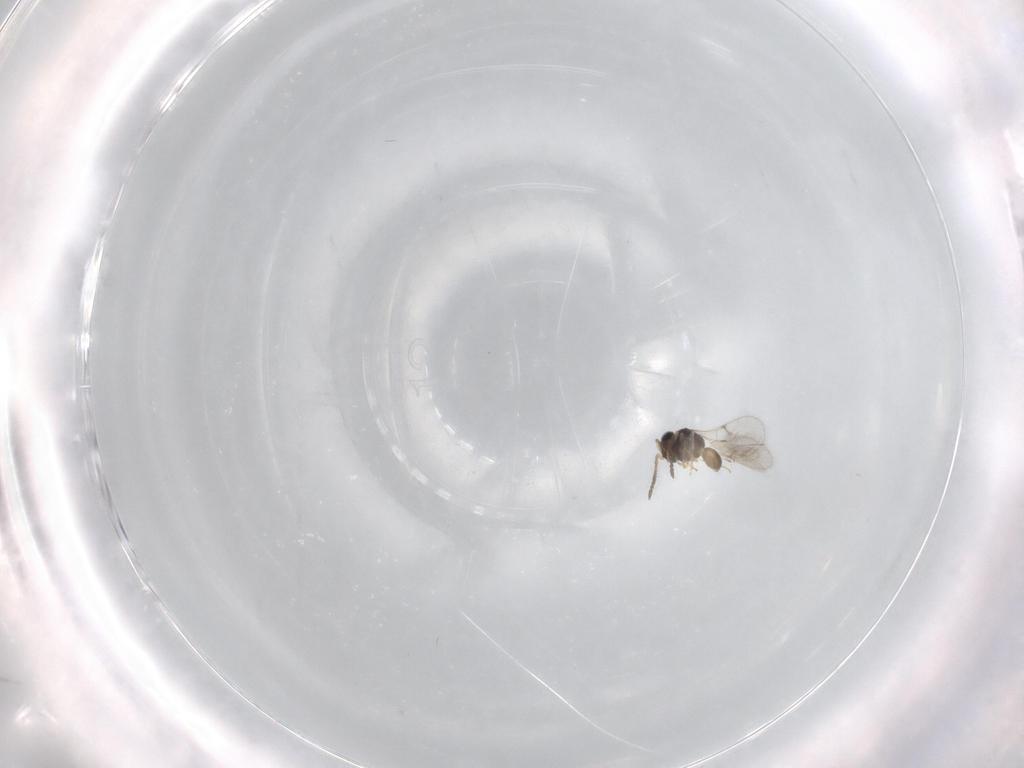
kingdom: Animalia
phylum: Arthropoda
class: Insecta
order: Hymenoptera
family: Scelionidae
